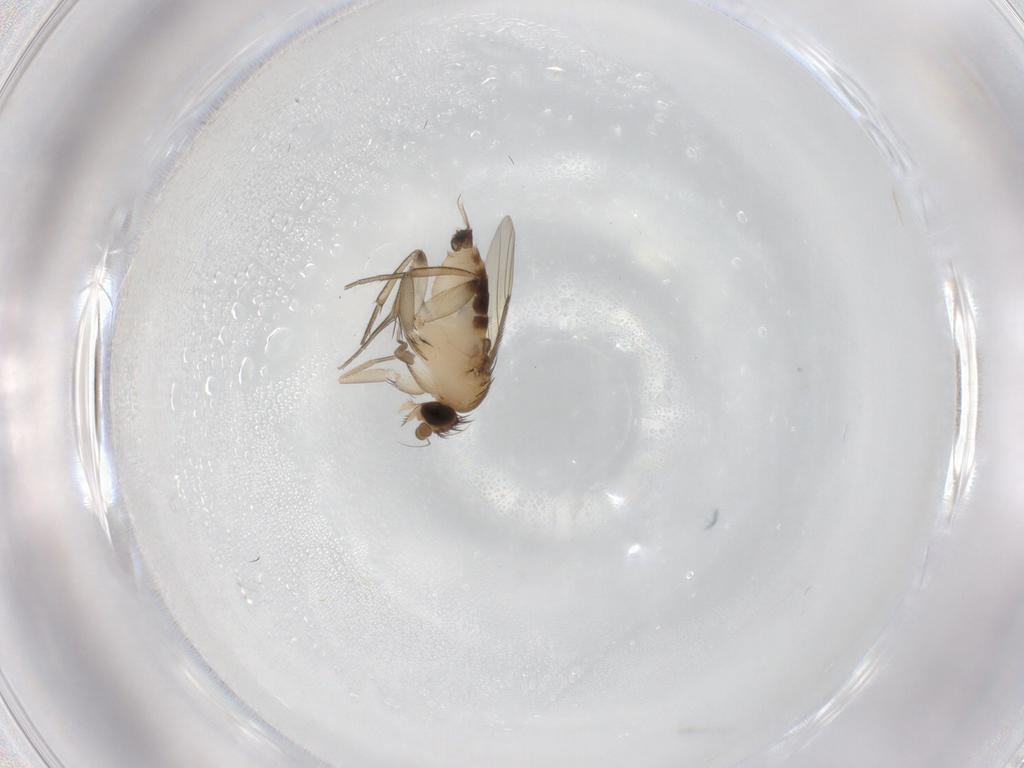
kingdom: Animalia
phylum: Arthropoda
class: Insecta
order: Diptera
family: Phoridae
